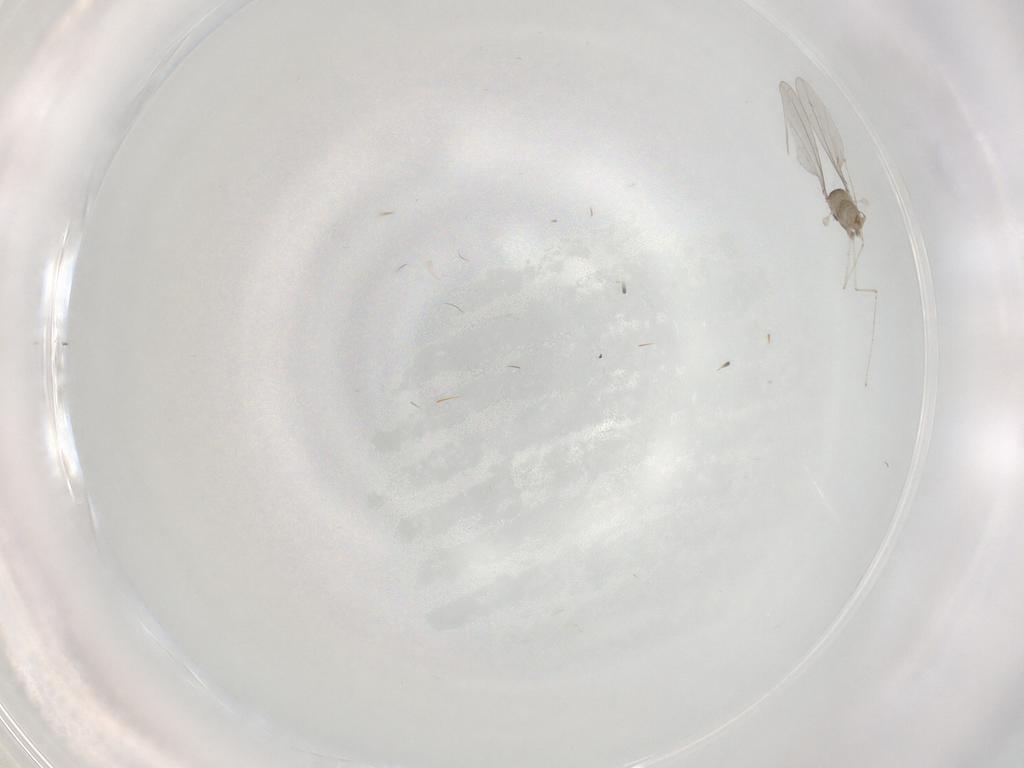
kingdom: Animalia
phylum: Arthropoda
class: Insecta
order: Diptera
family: Cecidomyiidae
